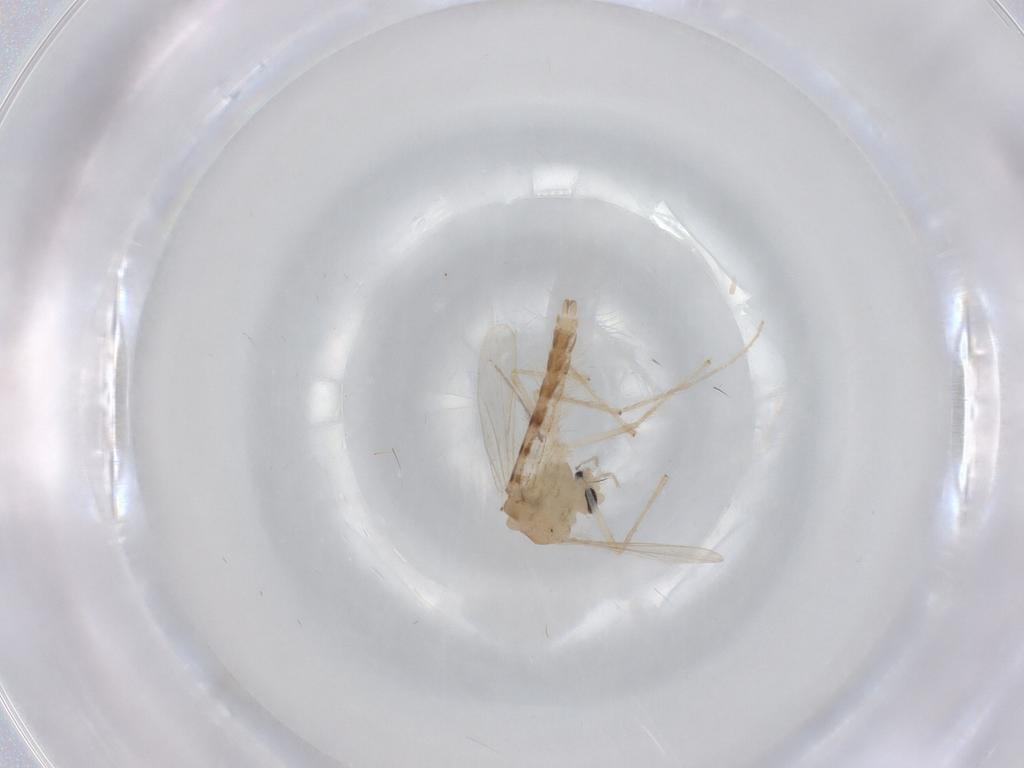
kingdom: Animalia
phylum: Arthropoda
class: Insecta
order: Diptera
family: Chironomidae
